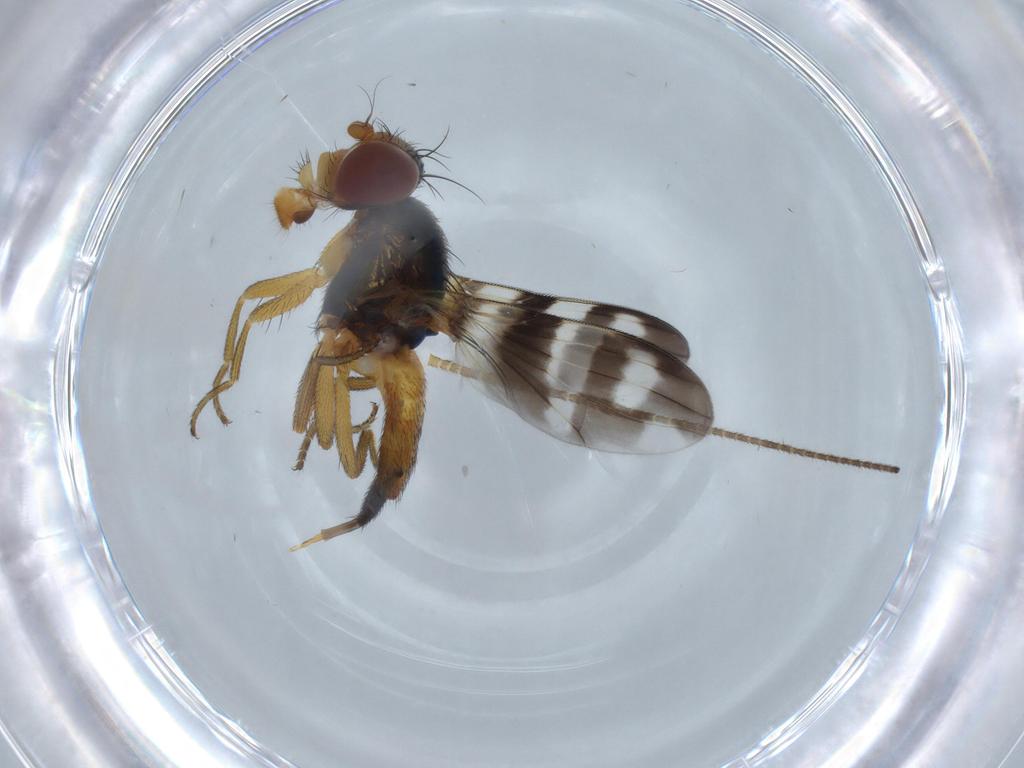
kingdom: Animalia
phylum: Arthropoda
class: Insecta
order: Diptera
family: Ulidiidae
